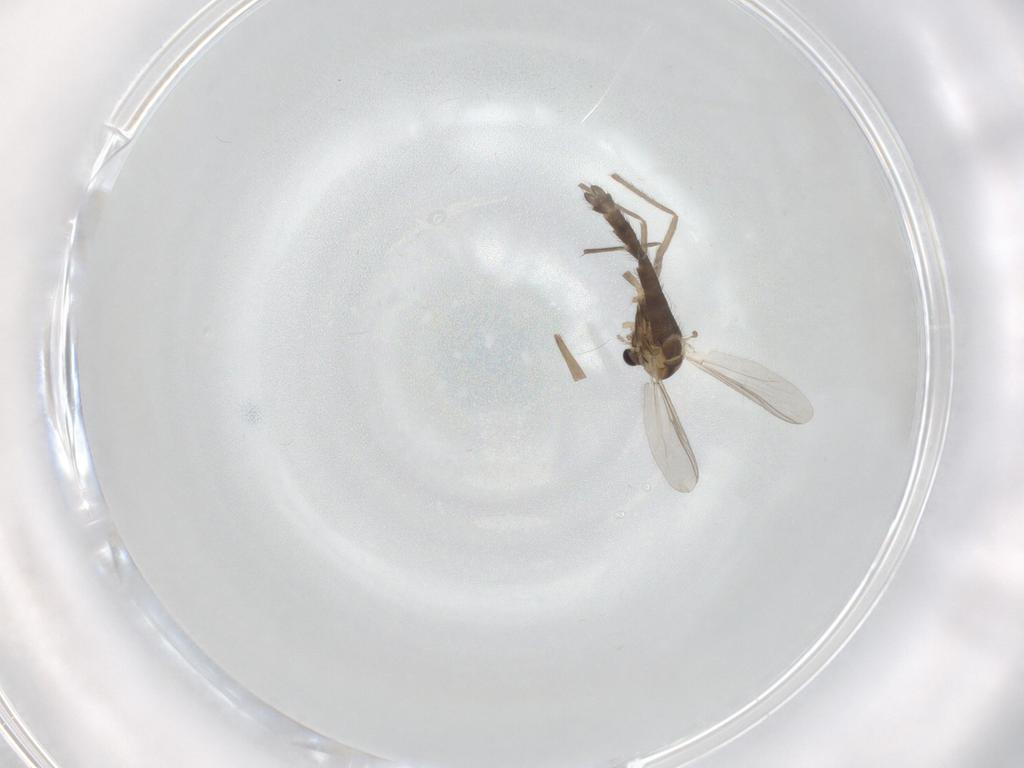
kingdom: Animalia
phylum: Arthropoda
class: Insecta
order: Diptera
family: Chironomidae
